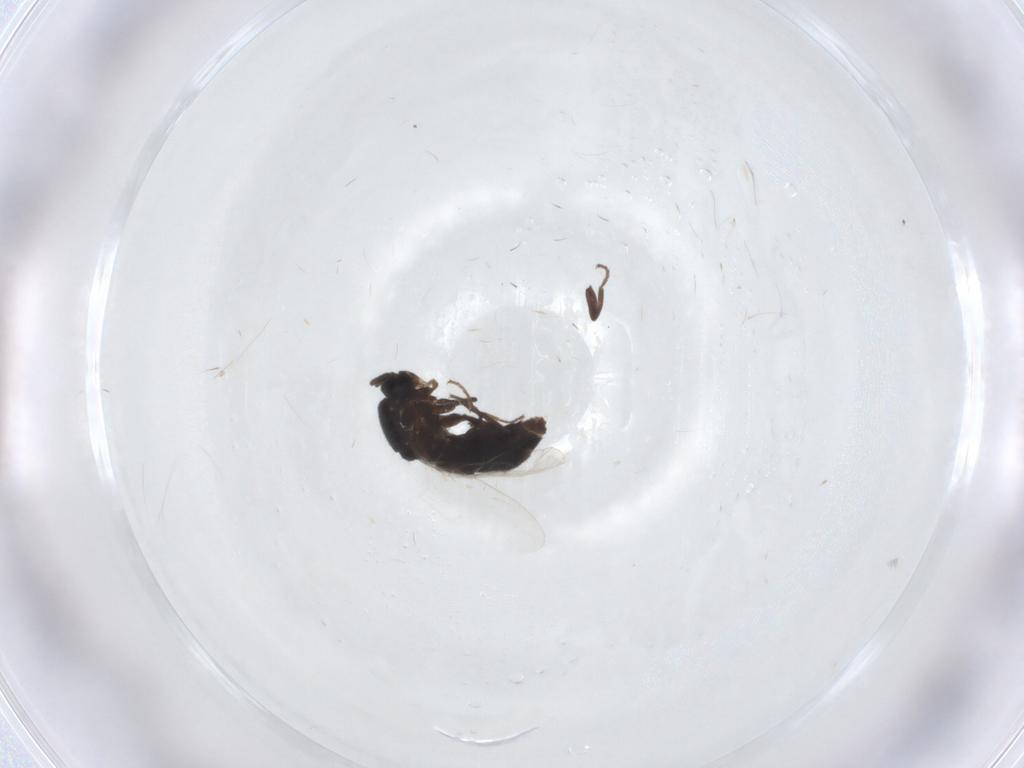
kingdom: Animalia
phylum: Arthropoda
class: Insecta
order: Diptera
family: Scatopsidae
